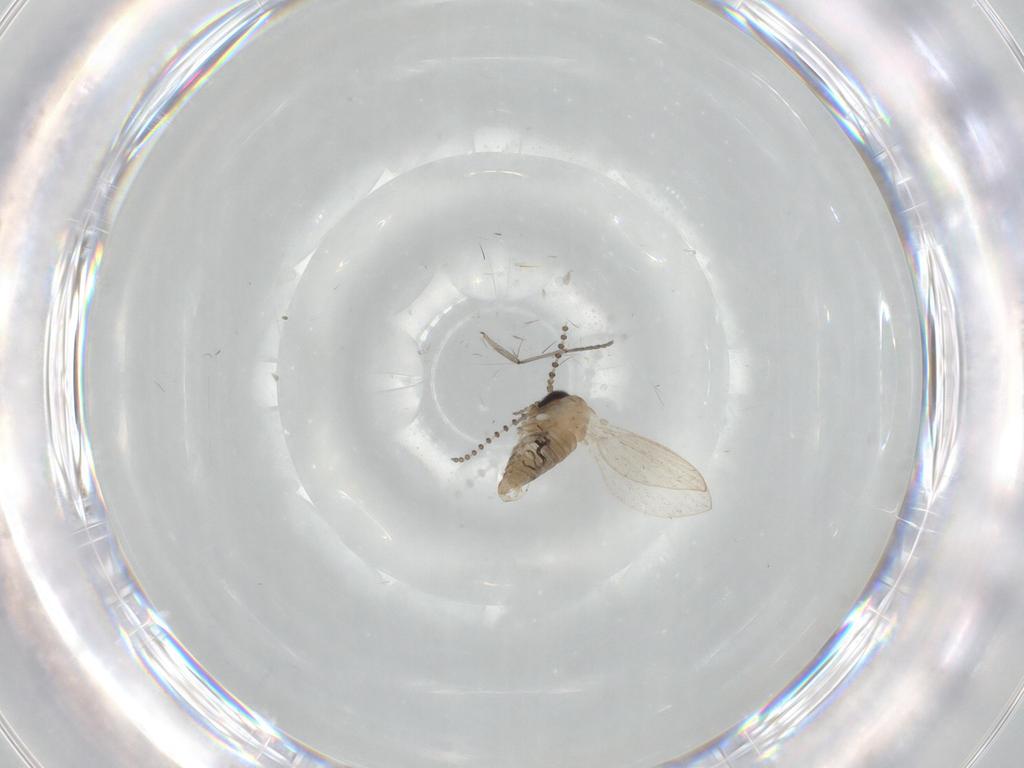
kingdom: Animalia
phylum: Arthropoda
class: Insecta
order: Diptera
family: Psychodidae
